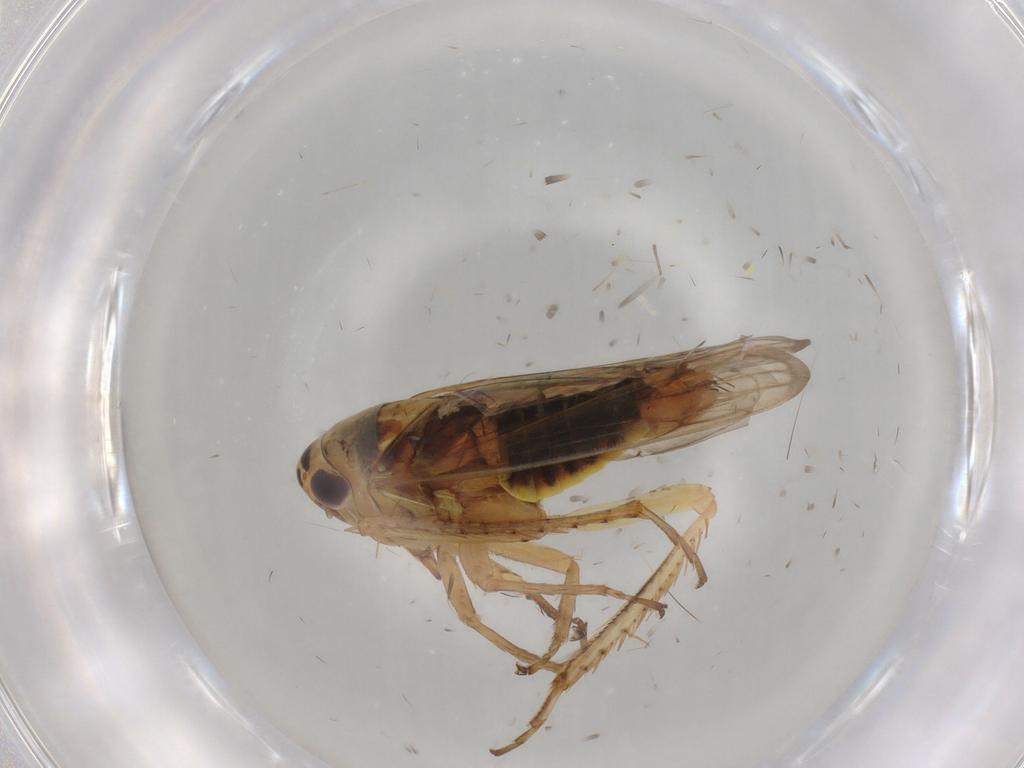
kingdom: Animalia
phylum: Arthropoda
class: Insecta
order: Hemiptera
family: Cicadellidae
